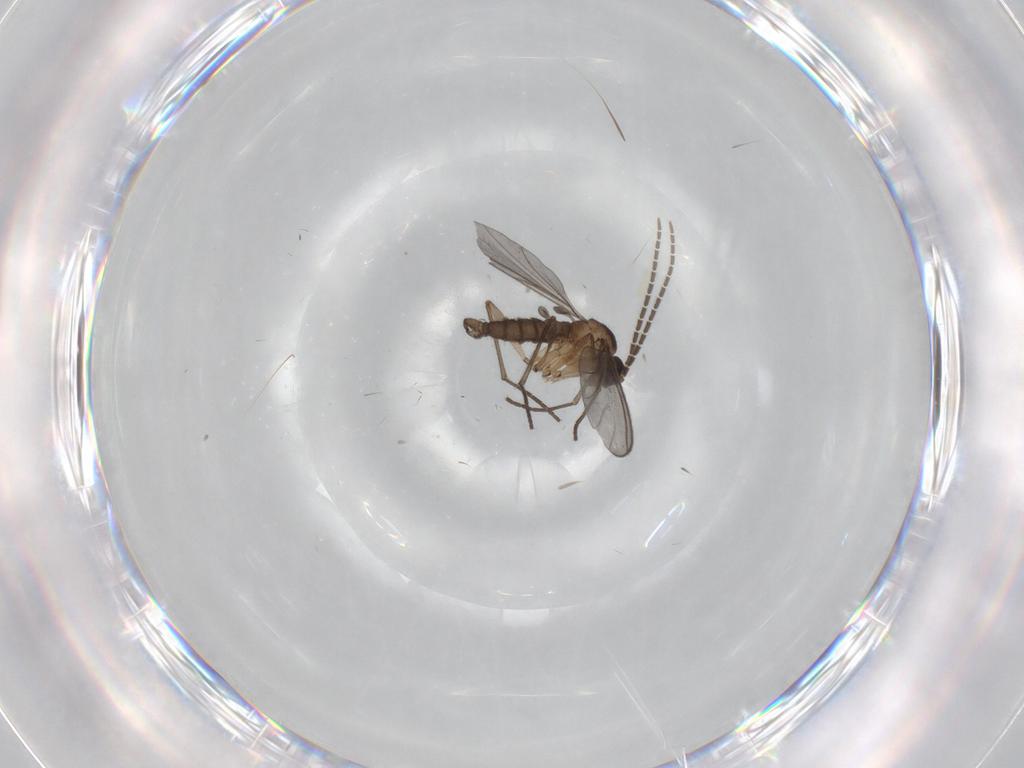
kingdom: Animalia
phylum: Arthropoda
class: Insecta
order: Diptera
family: Sciaridae
